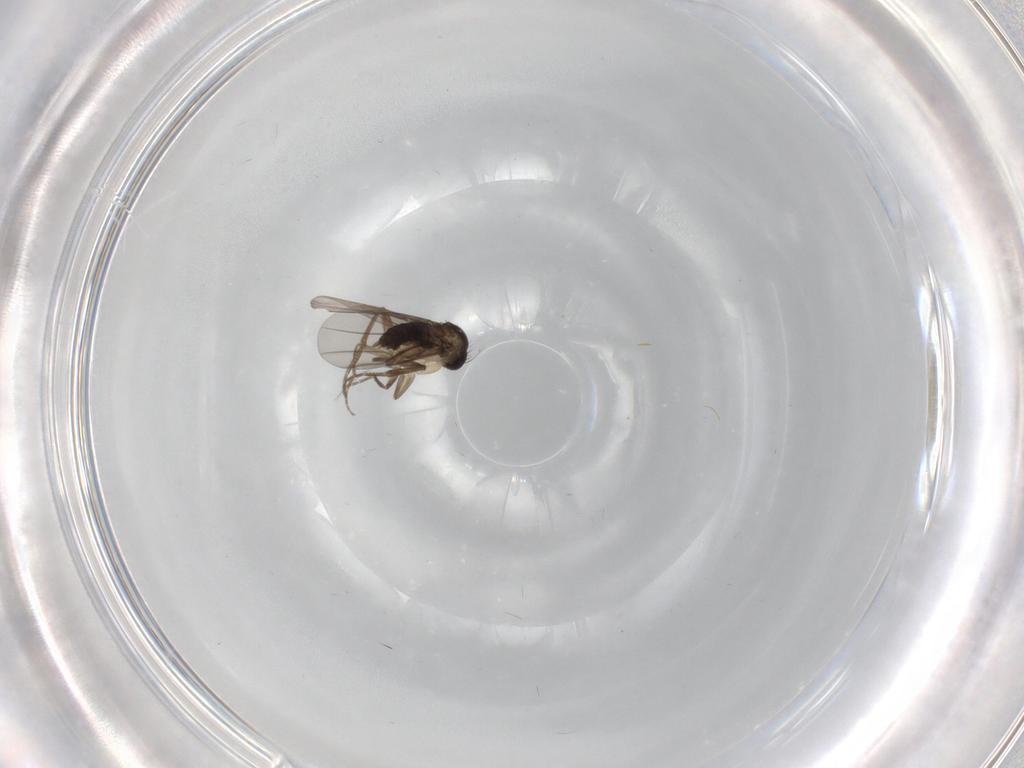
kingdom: Animalia
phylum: Arthropoda
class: Insecta
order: Diptera
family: Phoridae
